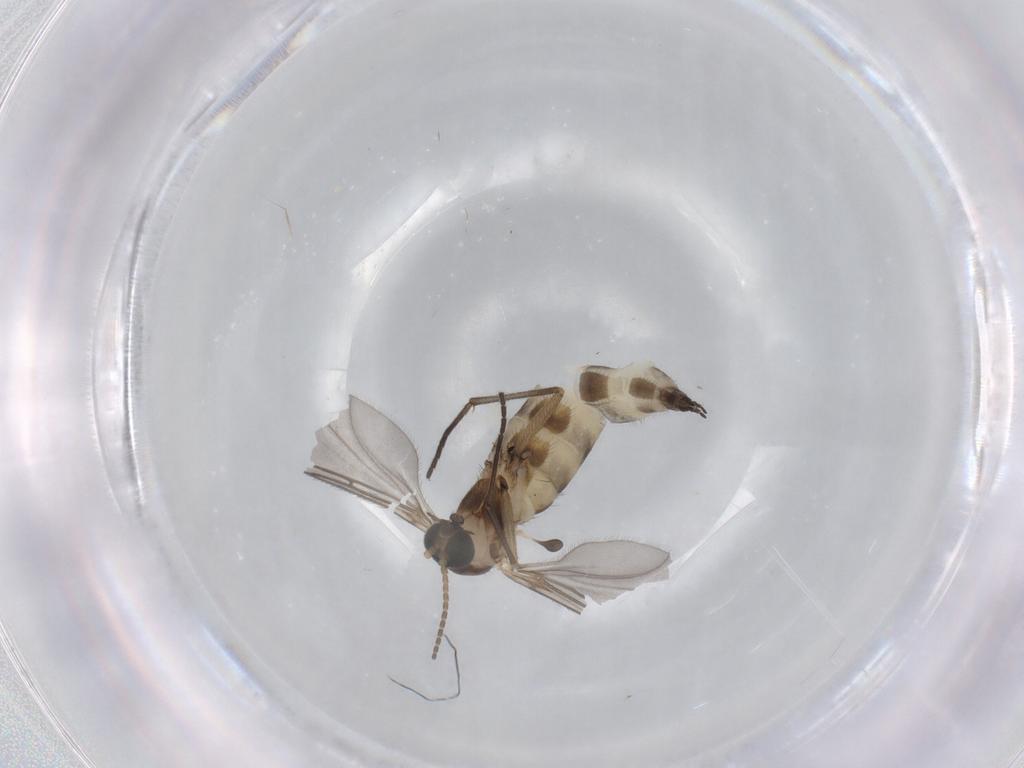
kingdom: Animalia
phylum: Arthropoda
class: Insecta
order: Diptera
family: Sciaridae
